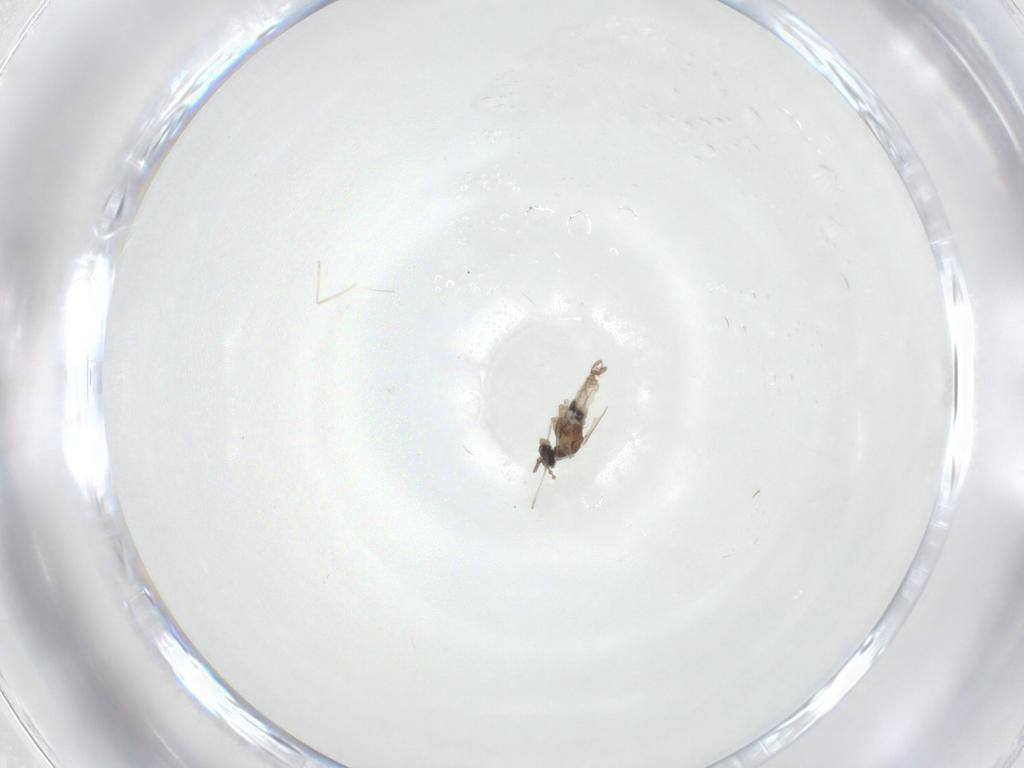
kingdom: Animalia
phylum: Arthropoda
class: Insecta
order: Diptera
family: Cecidomyiidae
